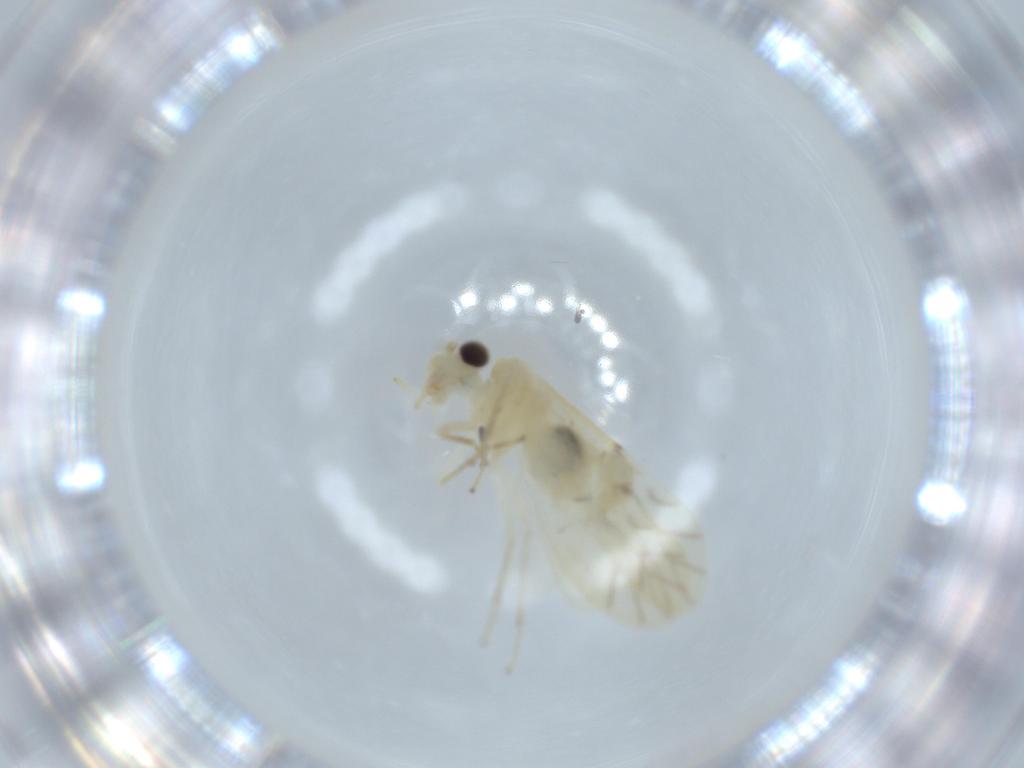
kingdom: Animalia
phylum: Arthropoda
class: Insecta
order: Psocodea
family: Caeciliusidae
